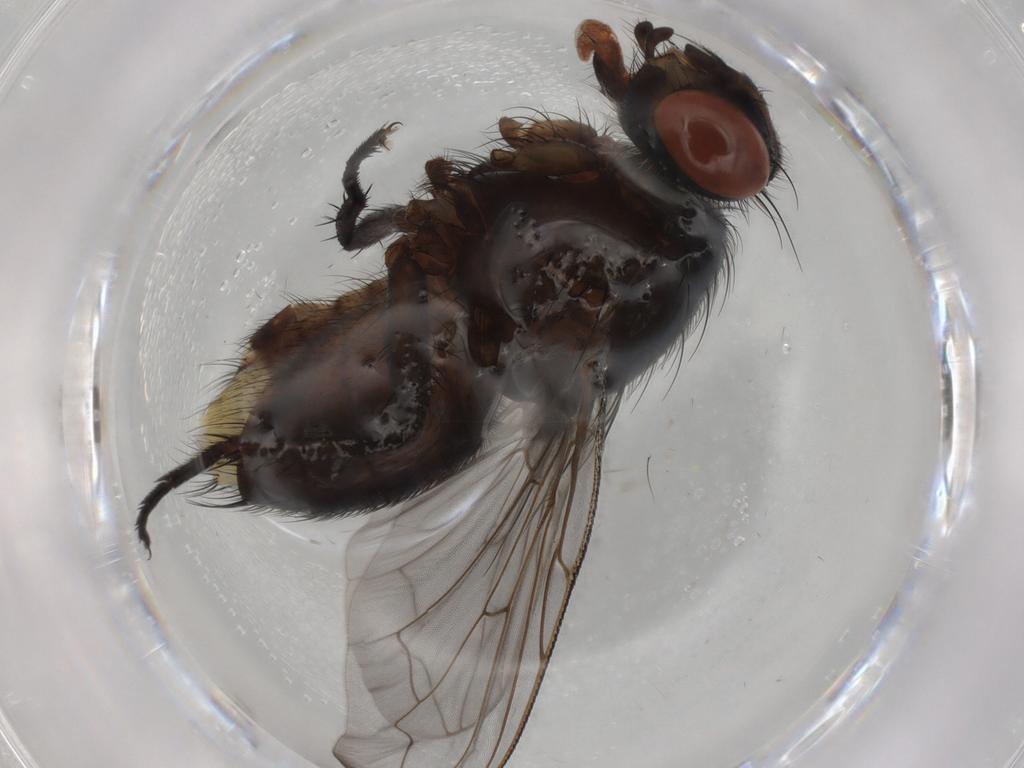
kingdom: Animalia
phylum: Arthropoda
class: Insecta
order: Diptera
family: Sarcophagidae
